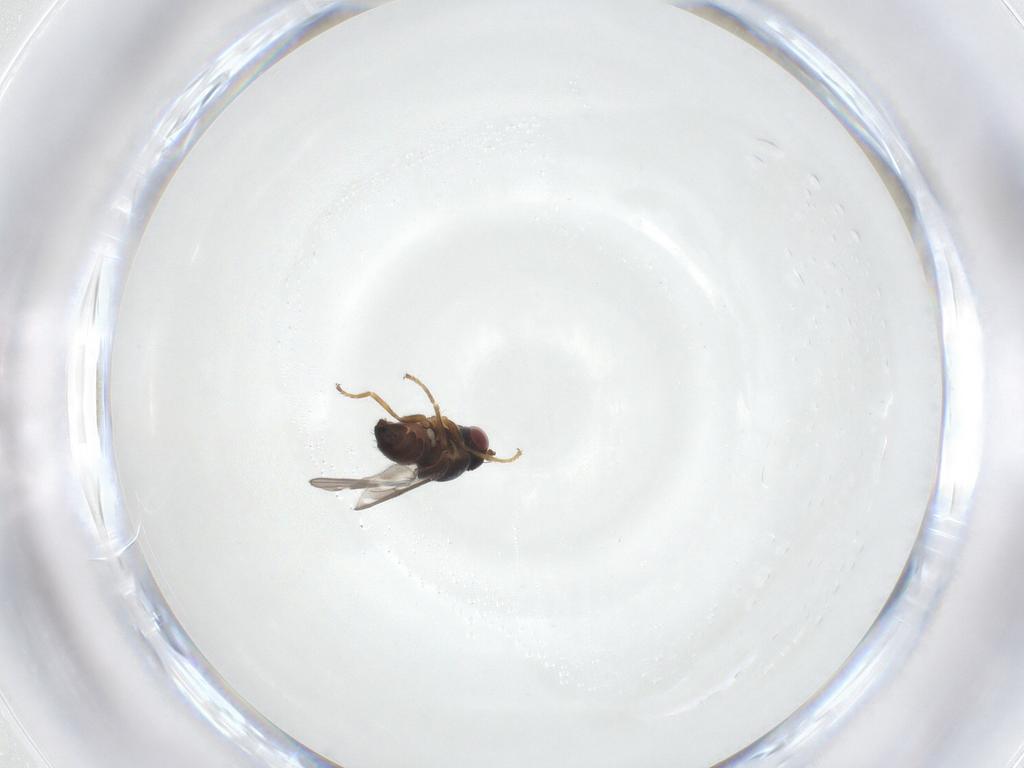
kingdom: Animalia
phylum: Arthropoda
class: Insecta
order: Diptera
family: Ephydridae
